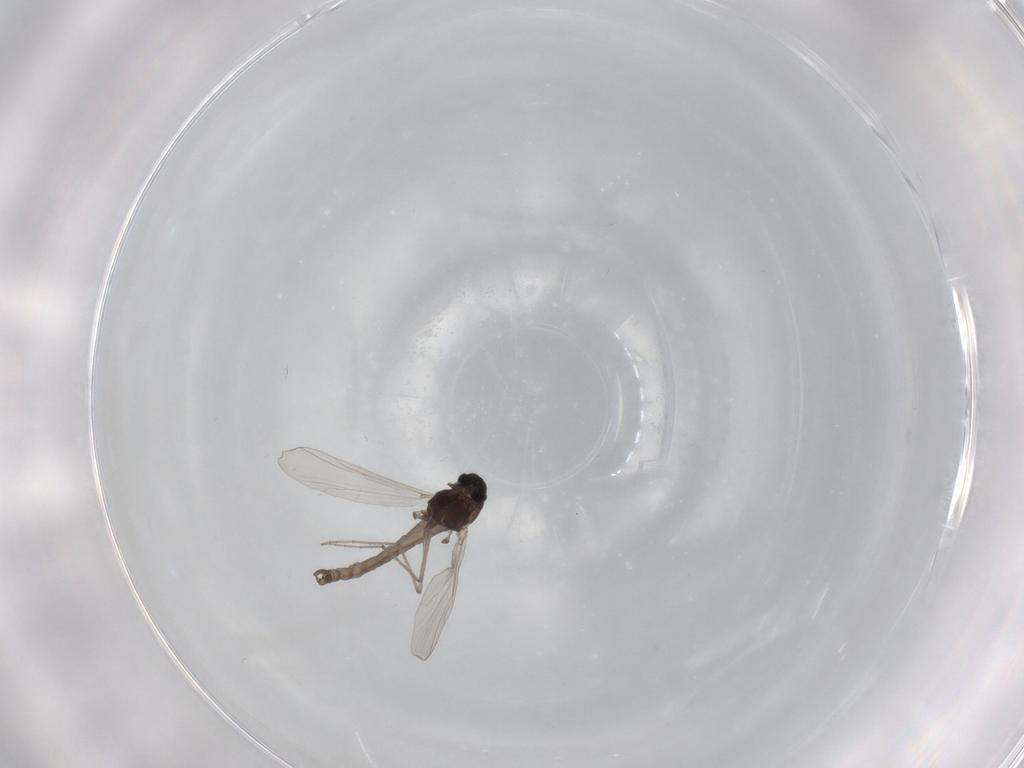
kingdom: Animalia
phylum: Arthropoda
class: Insecta
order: Diptera
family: Chironomidae
